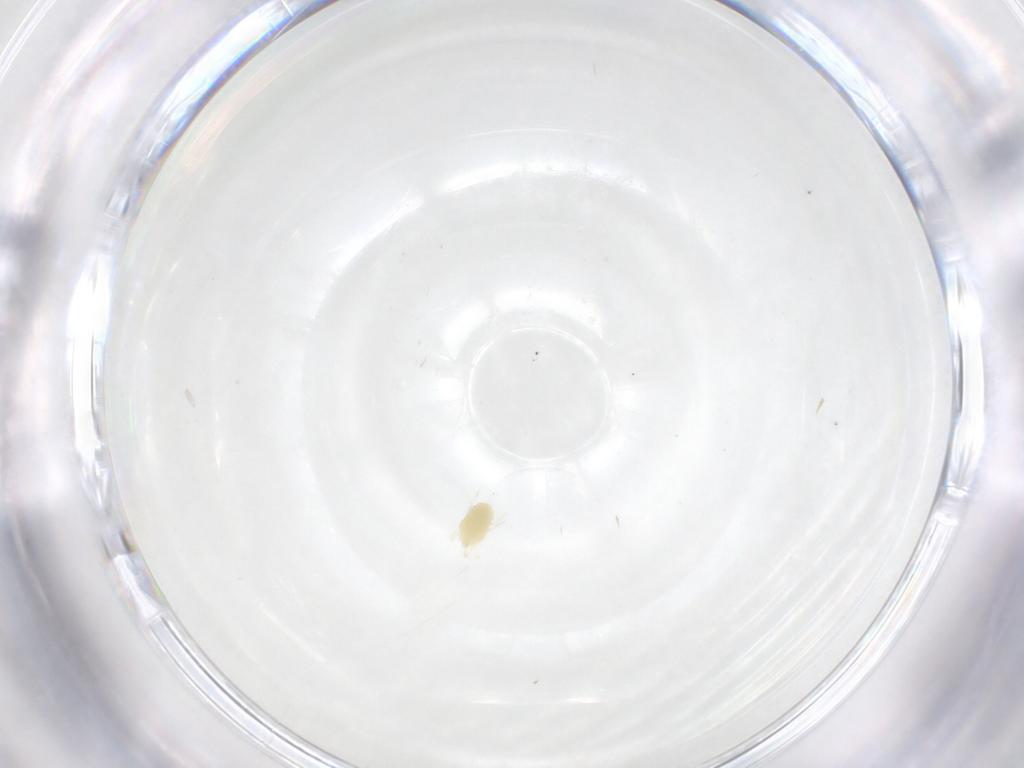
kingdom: Animalia
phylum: Arthropoda
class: Arachnida
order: Trombidiformes
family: Tetranychidae
